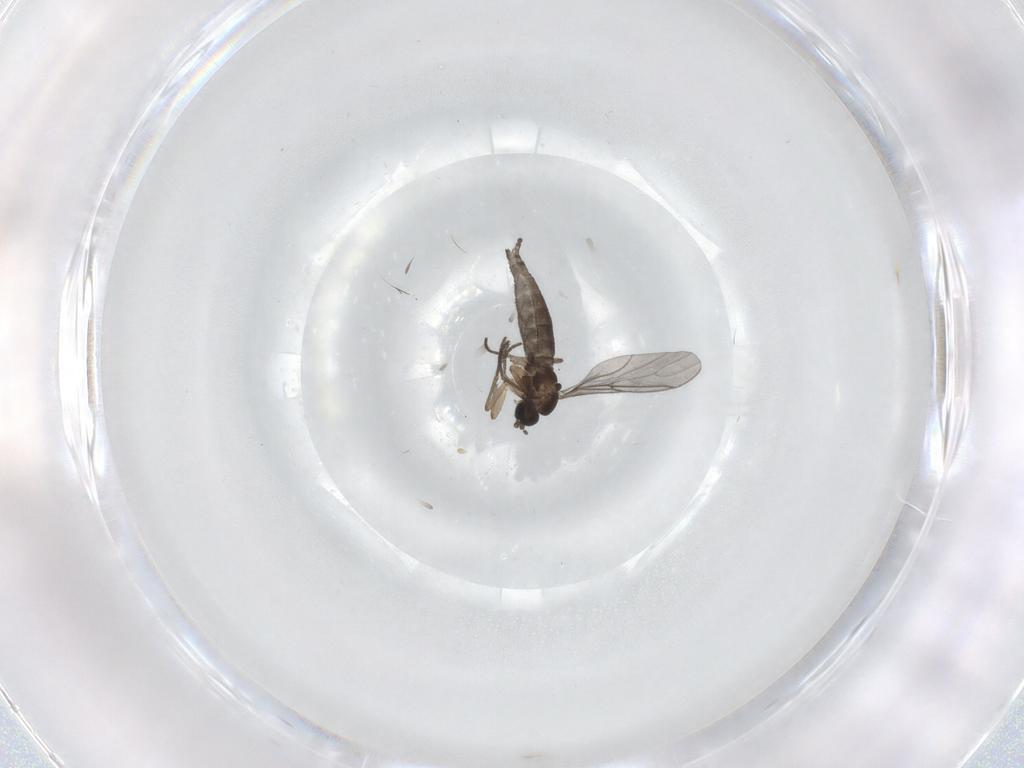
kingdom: Animalia
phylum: Arthropoda
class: Insecta
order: Diptera
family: Sciaridae
